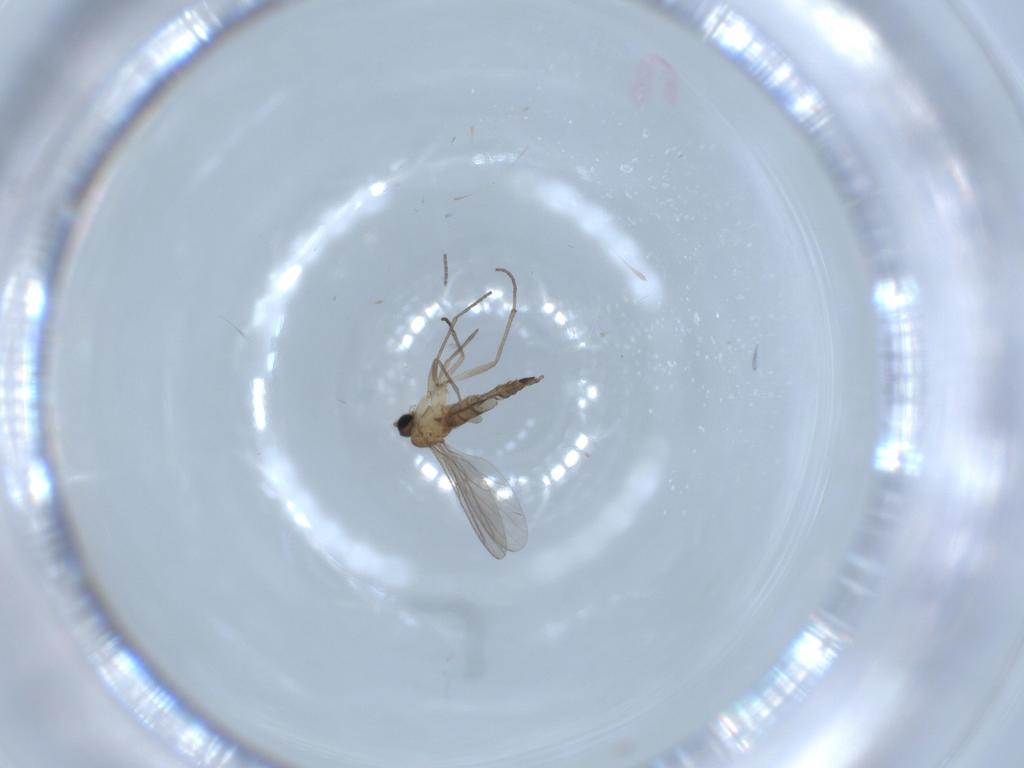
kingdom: Animalia
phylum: Arthropoda
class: Insecta
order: Diptera
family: Sciaridae
